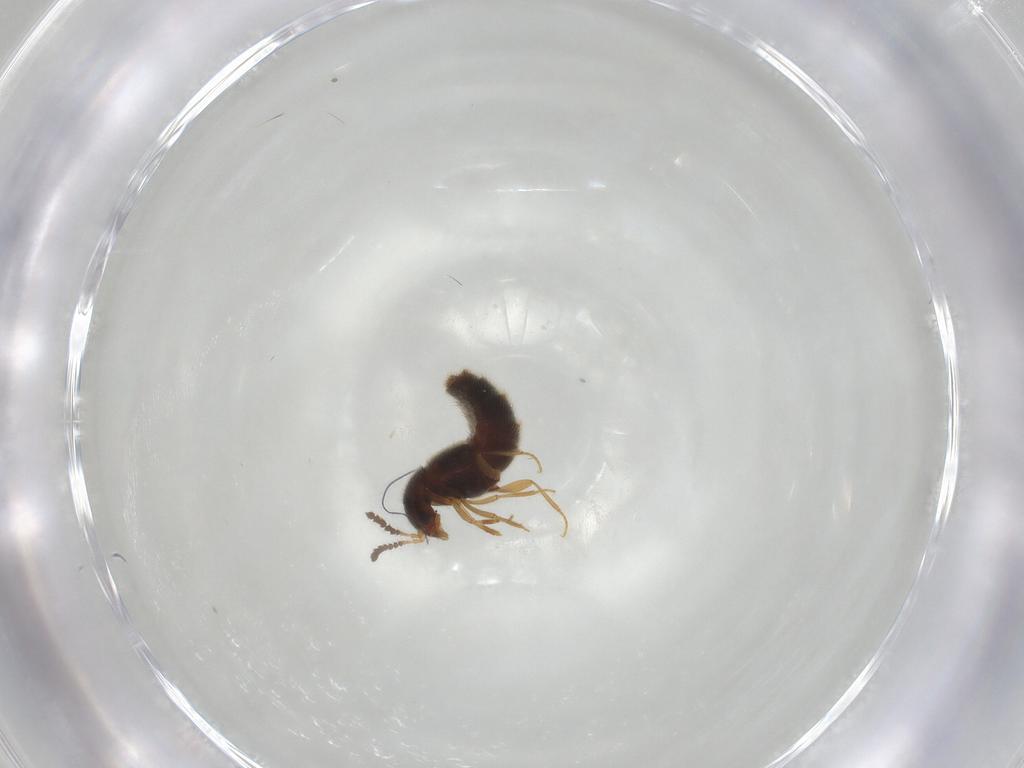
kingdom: Animalia
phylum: Arthropoda
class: Insecta
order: Coleoptera
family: Staphylinidae
